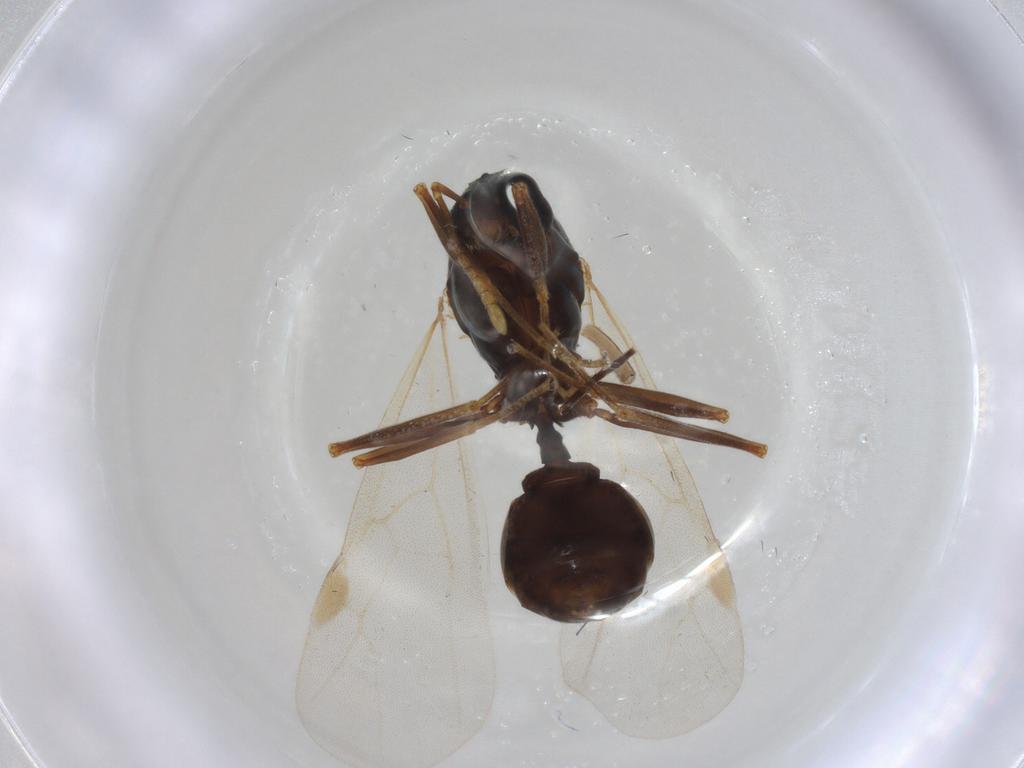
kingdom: Animalia
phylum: Arthropoda
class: Insecta
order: Hymenoptera
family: Formicidae
